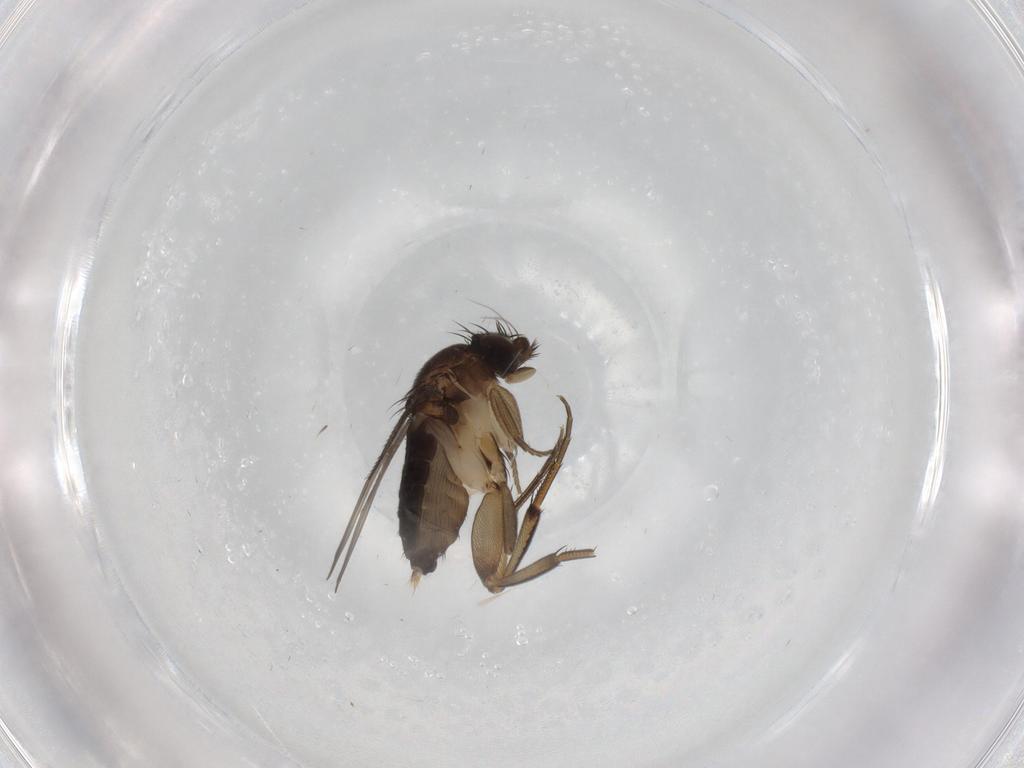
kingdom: Animalia
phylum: Arthropoda
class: Insecta
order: Diptera
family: Phoridae
